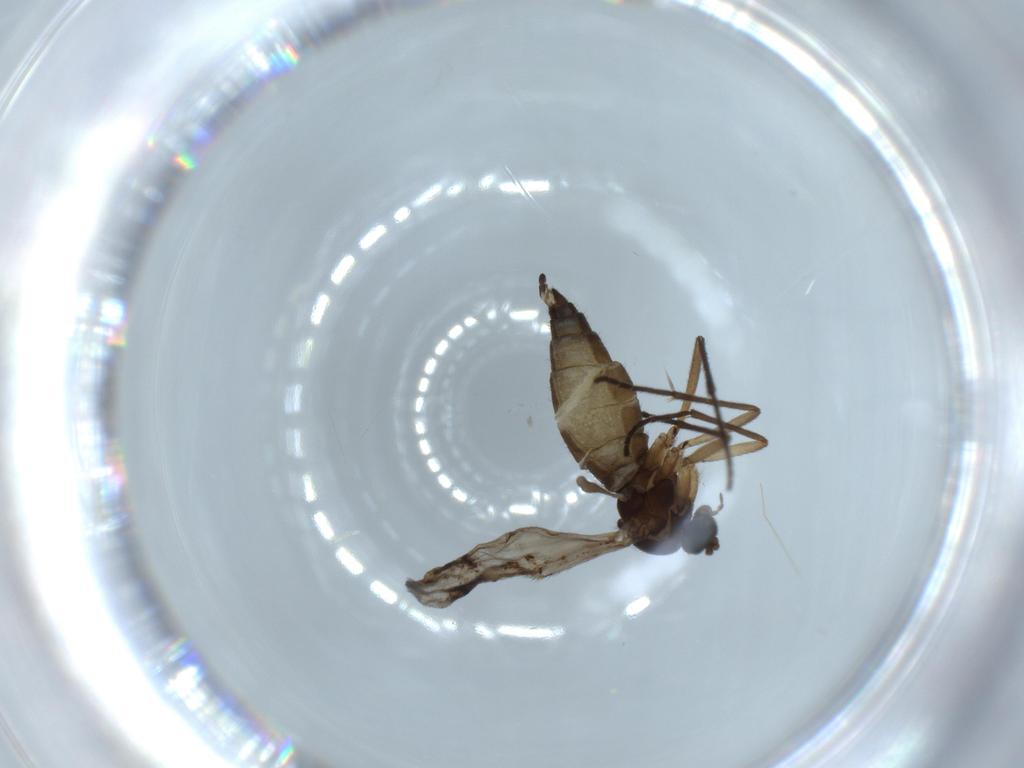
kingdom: Animalia
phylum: Arthropoda
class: Insecta
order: Diptera
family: Sciaridae
